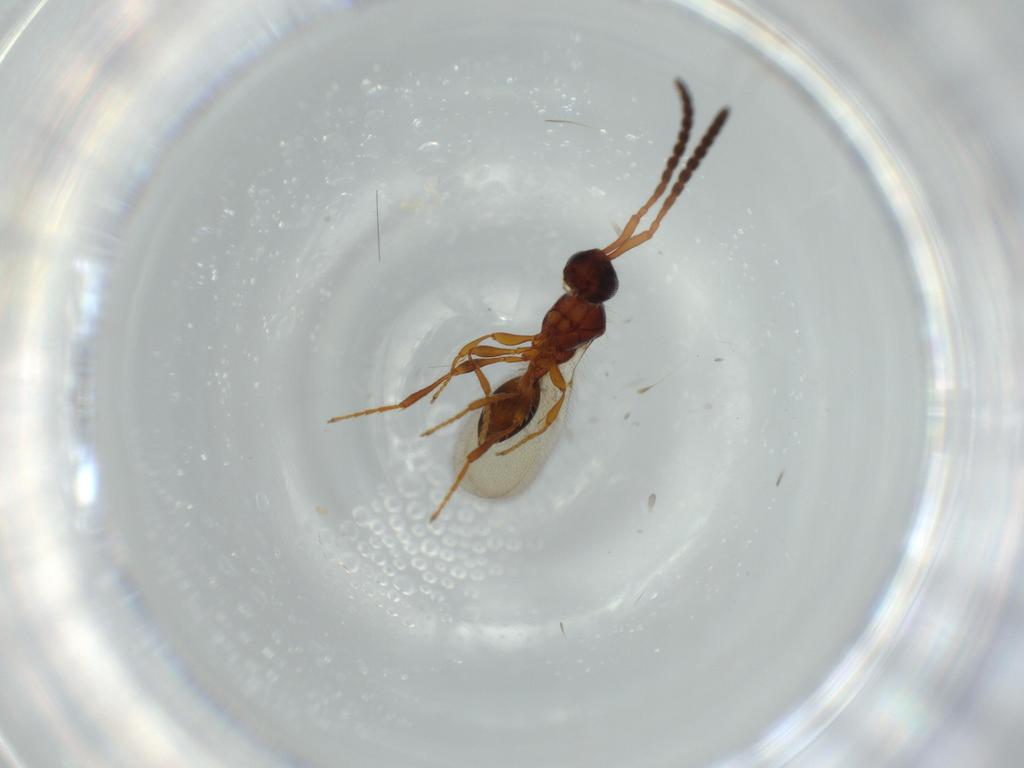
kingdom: Animalia
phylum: Arthropoda
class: Insecta
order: Hymenoptera
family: Diapriidae
